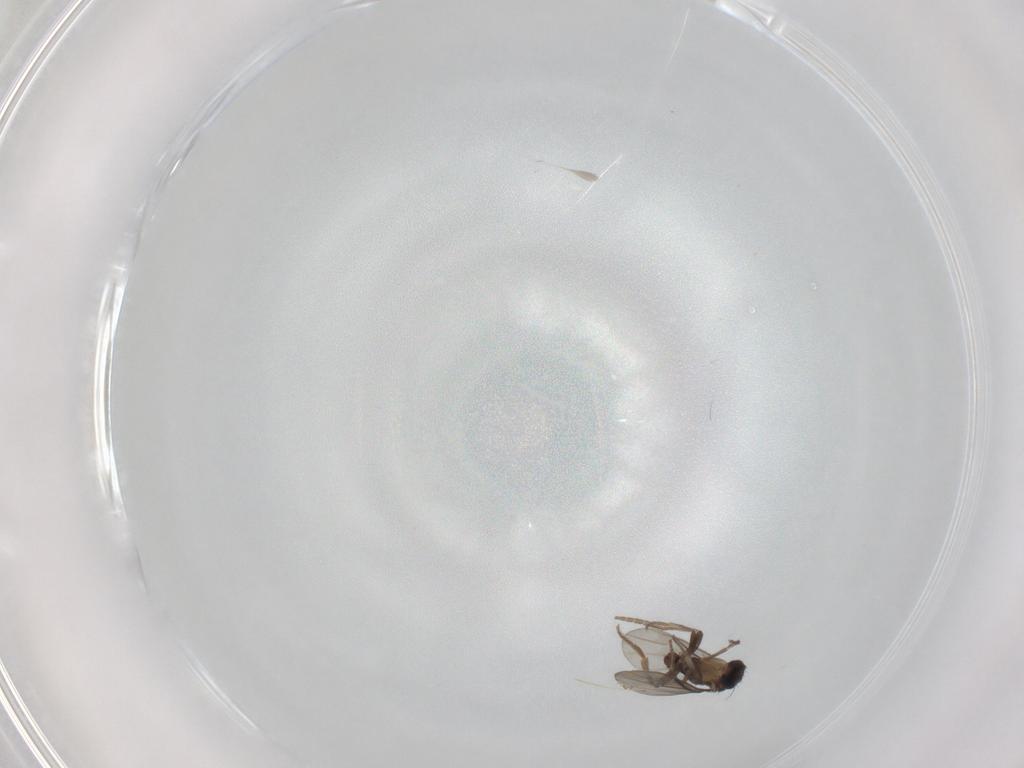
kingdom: Animalia
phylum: Arthropoda
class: Insecta
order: Diptera
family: Cecidomyiidae
